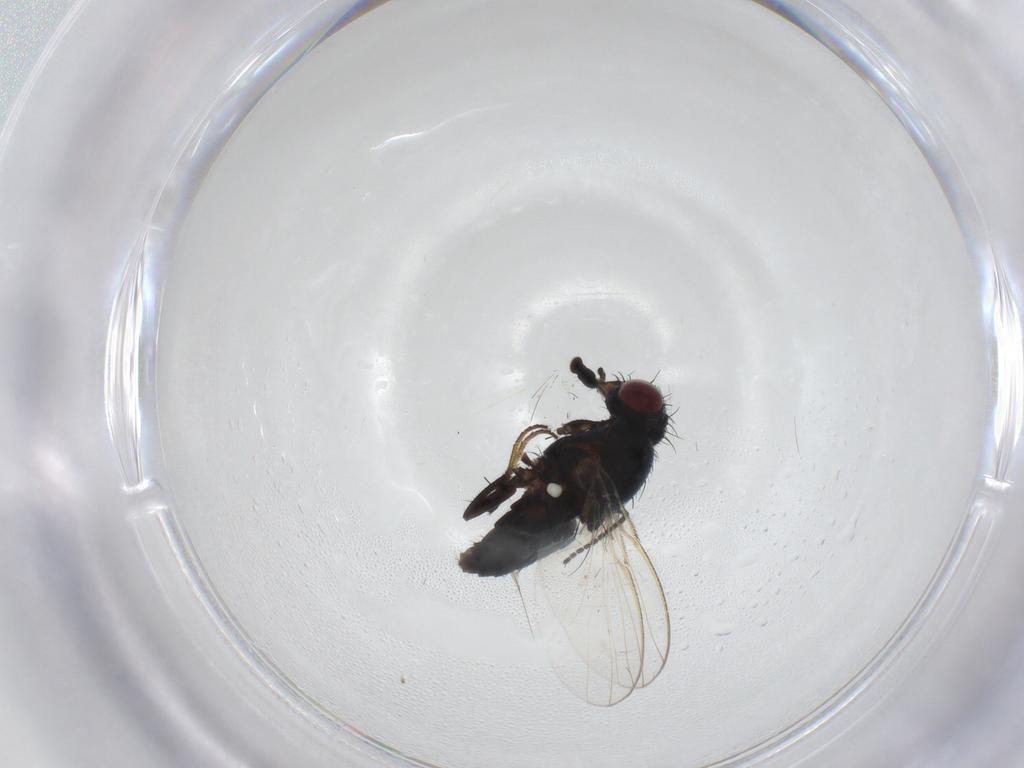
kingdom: Animalia
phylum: Arthropoda
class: Insecta
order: Diptera
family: Carnidae
